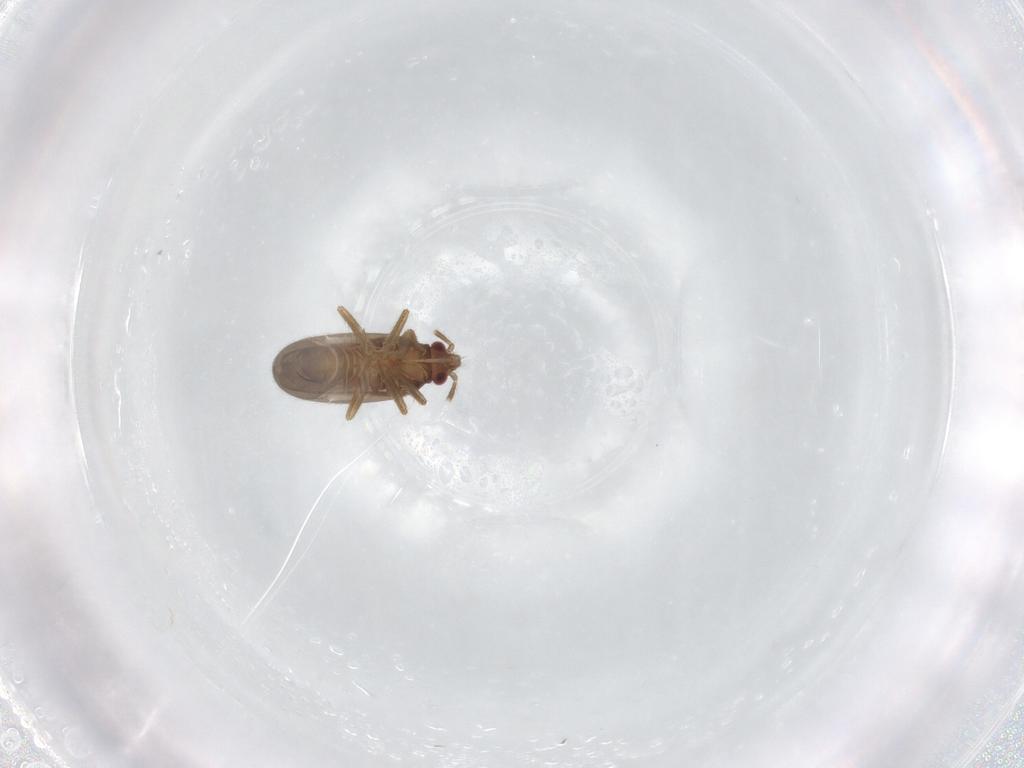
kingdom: Animalia
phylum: Arthropoda
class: Insecta
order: Hemiptera
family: Ceratocombidae
